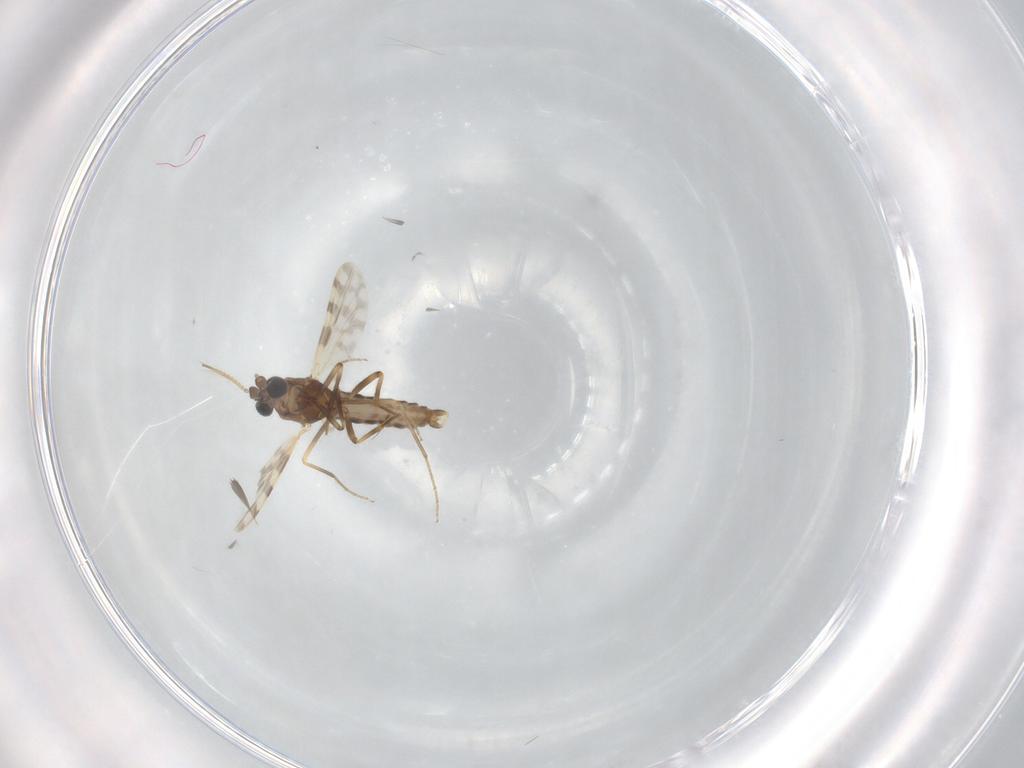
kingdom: Animalia
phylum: Arthropoda
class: Insecta
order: Diptera
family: Ceratopogonidae
